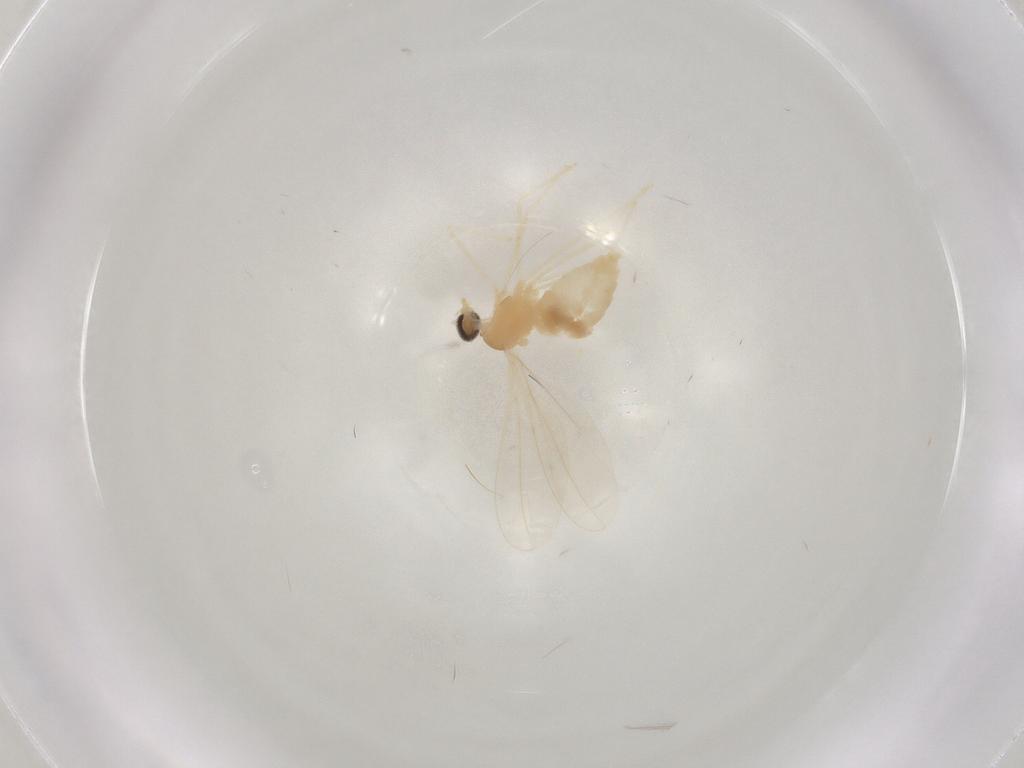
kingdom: Animalia
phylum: Arthropoda
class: Insecta
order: Diptera
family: Cecidomyiidae
